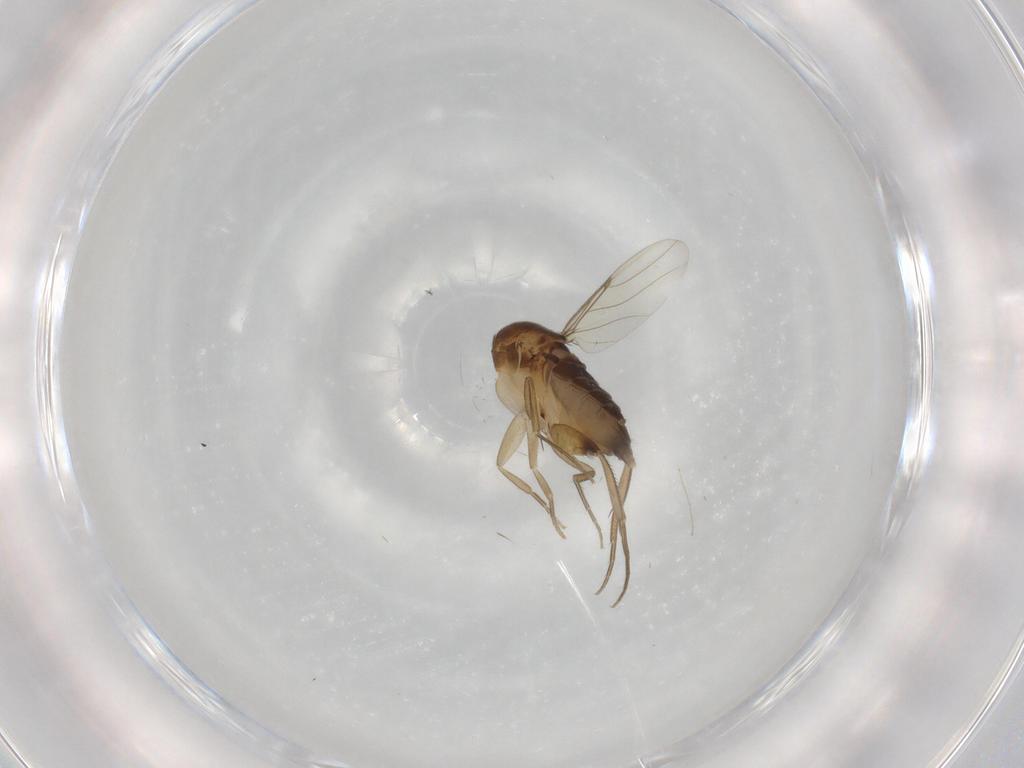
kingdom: Animalia
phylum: Arthropoda
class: Insecta
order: Diptera
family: Phoridae
